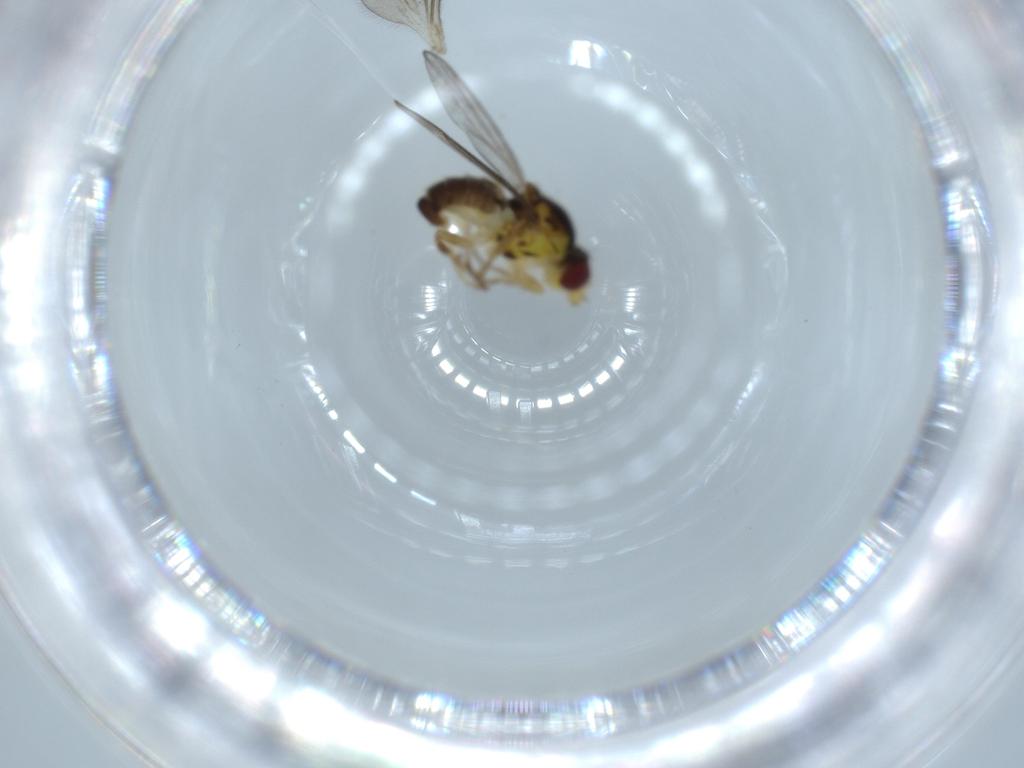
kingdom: Animalia
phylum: Arthropoda
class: Insecta
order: Diptera
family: Chloropidae
